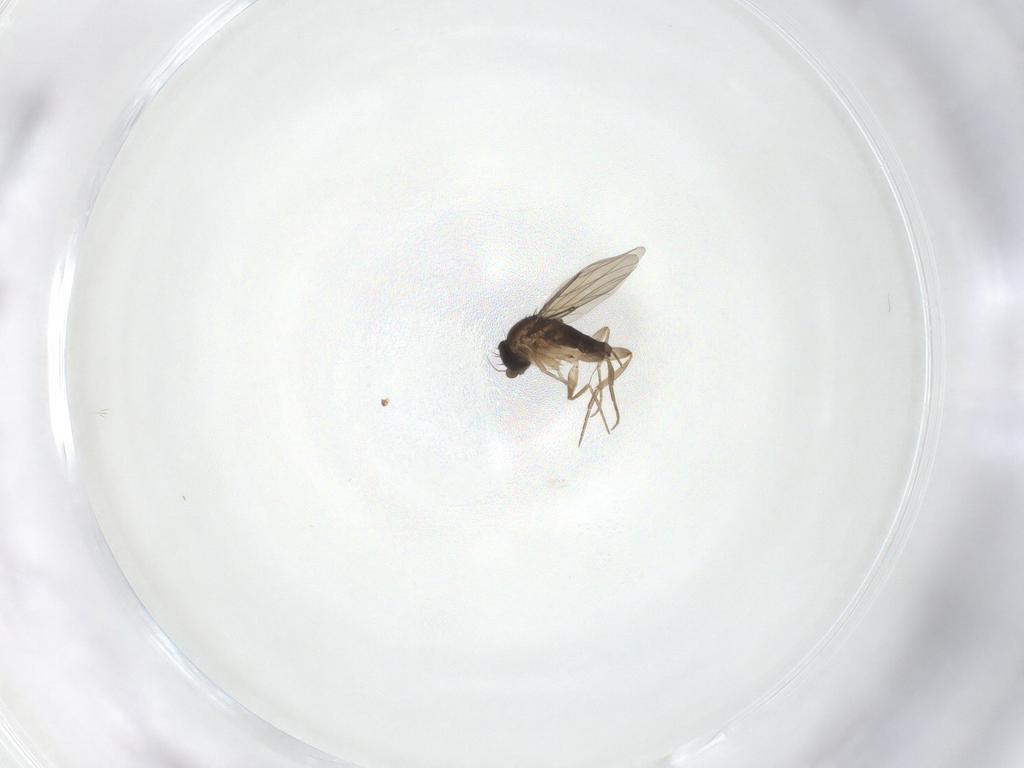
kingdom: Animalia
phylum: Arthropoda
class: Insecta
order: Diptera
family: Phoridae
